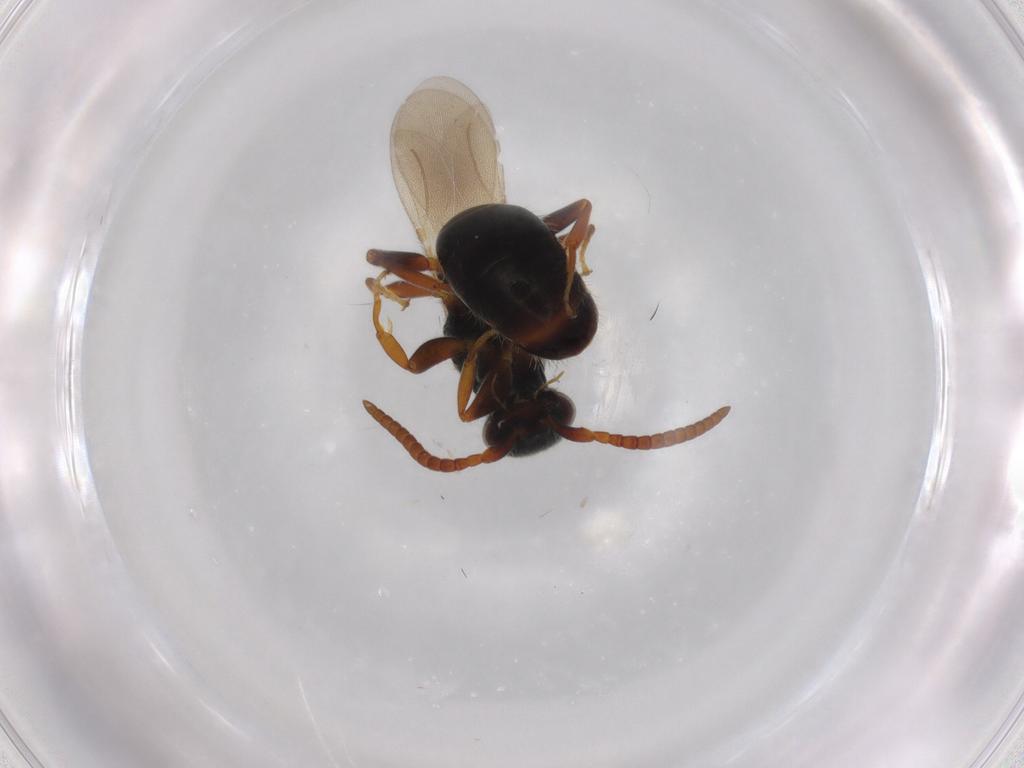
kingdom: Animalia
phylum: Arthropoda
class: Insecta
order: Hymenoptera
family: Bethylidae
